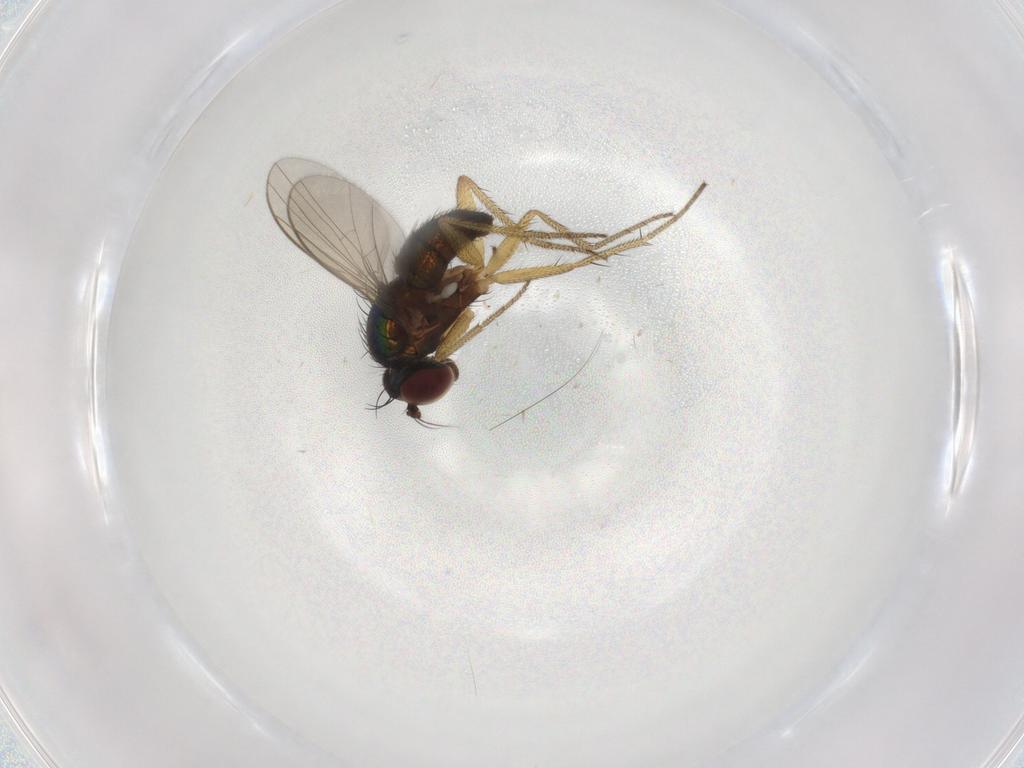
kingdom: Animalia
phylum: Arthropoda
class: Insecta
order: Diptera
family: Dolichopodidae
